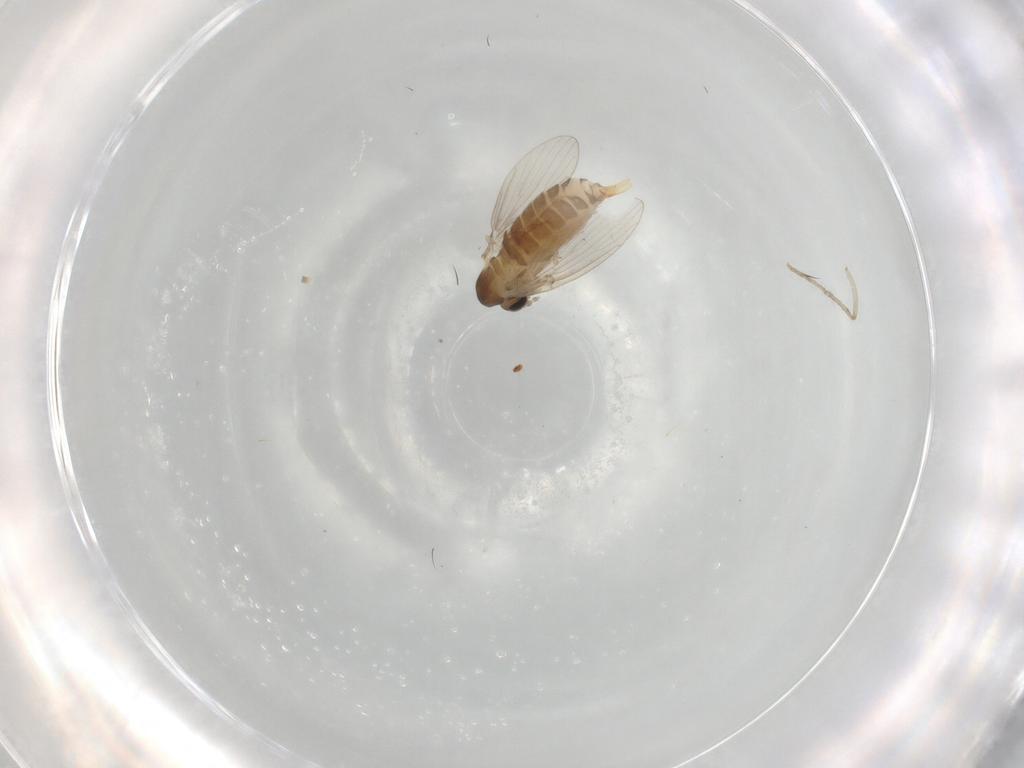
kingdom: Animalia
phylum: Arthropoda
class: Insecta
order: Diptera
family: Psychodidae
